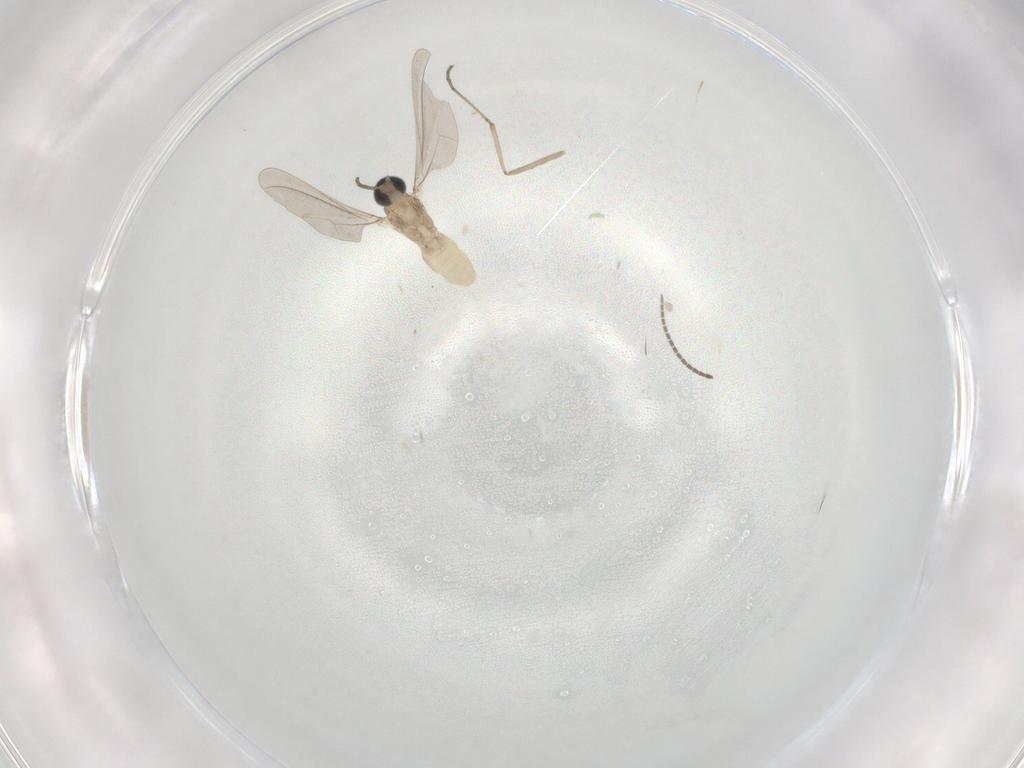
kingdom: Animalia
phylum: Arthropoda
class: Insecta
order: Diptera
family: Cecidomyiidae
